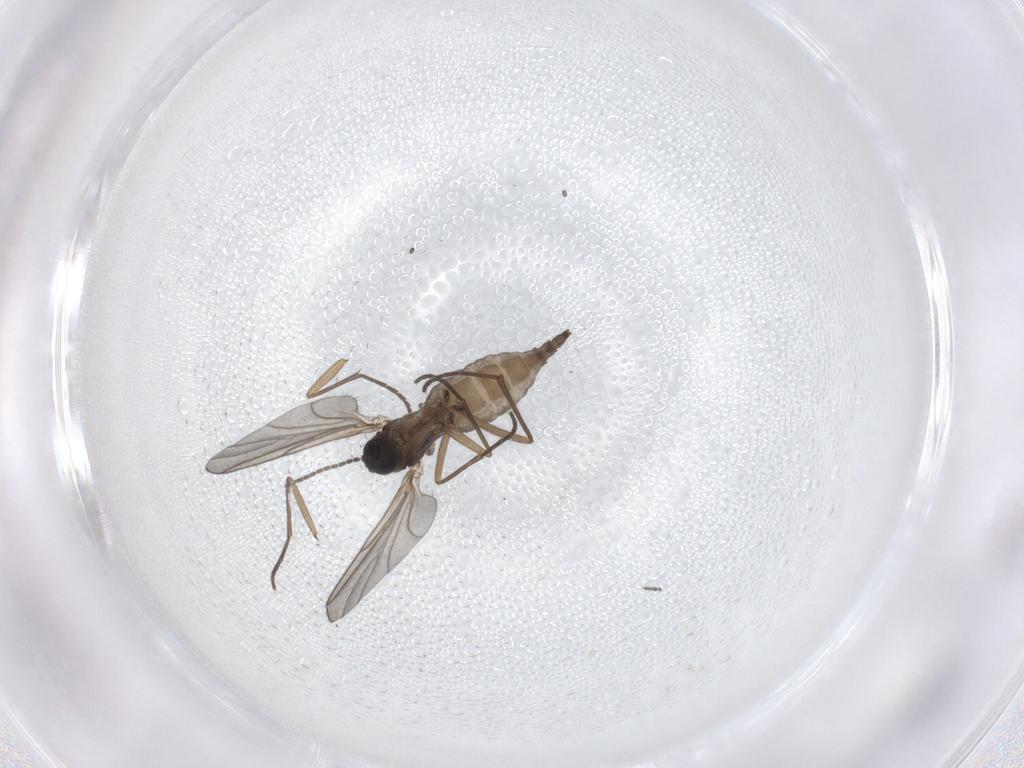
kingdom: Animalia
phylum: Arthropoda
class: Insecta
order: Diptera
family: Sciaridae
